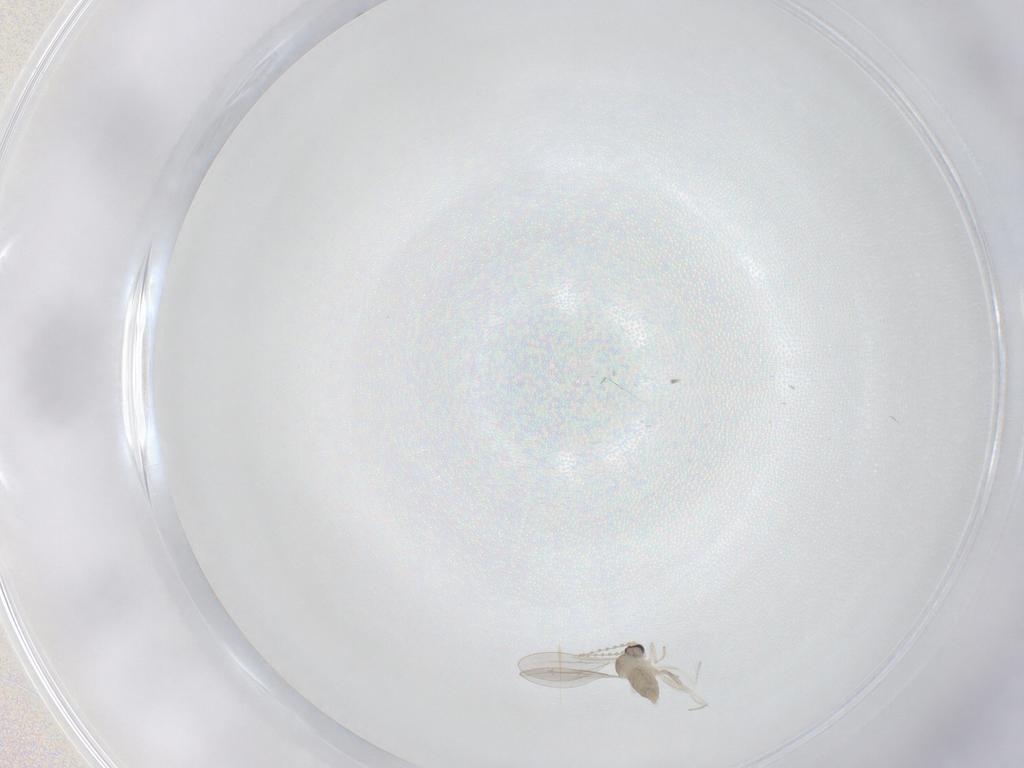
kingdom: Animalia
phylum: Arthropoda
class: Insecta
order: Diptera
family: Cecidomyiidae
